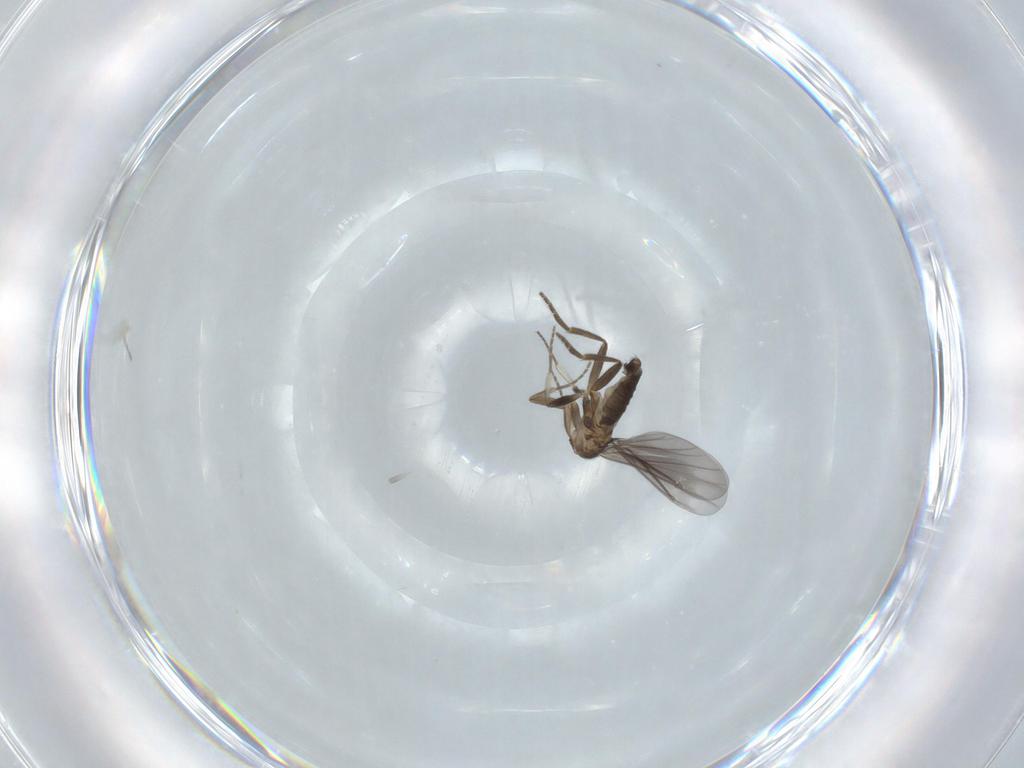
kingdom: Animalia
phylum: Arthropoda
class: Insecta
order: Diptera
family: Phoridae
